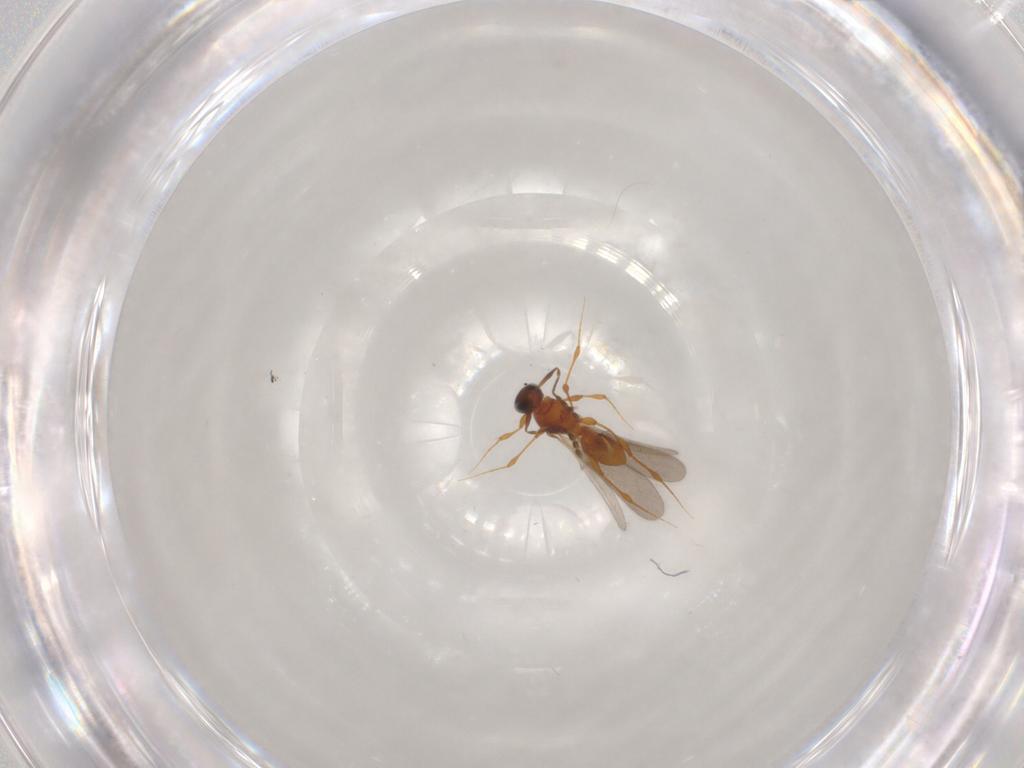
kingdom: Animalia
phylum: Arthropoda
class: Insecta
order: Hymenoptera
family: Platygastridae
